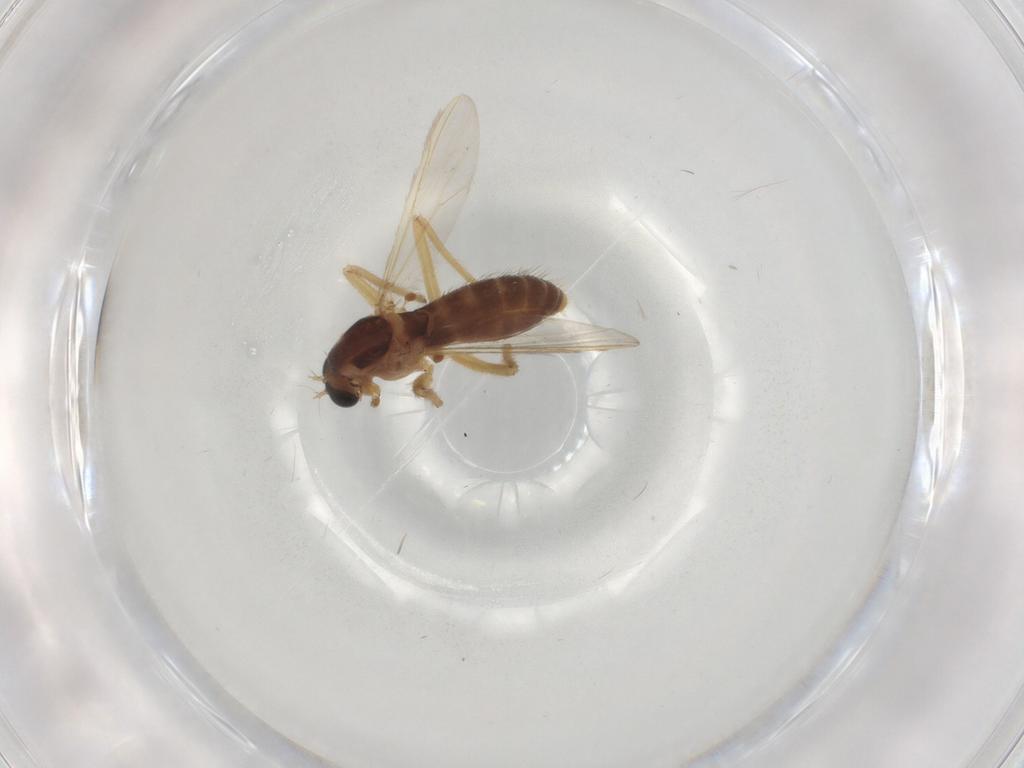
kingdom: Animalia
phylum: Arthropoda
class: Insecta
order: Diptera
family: Chironomidae
